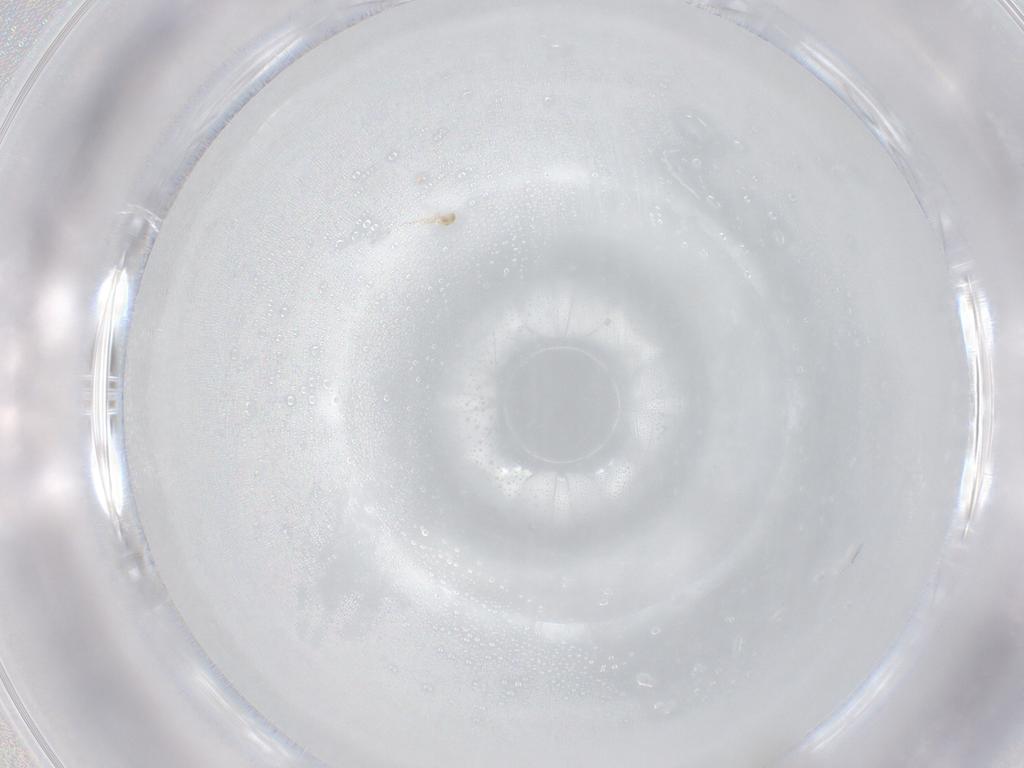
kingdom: Animalia
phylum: Arthropoda
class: Collembola
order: Entomobryomorpha
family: Entomobryidae
